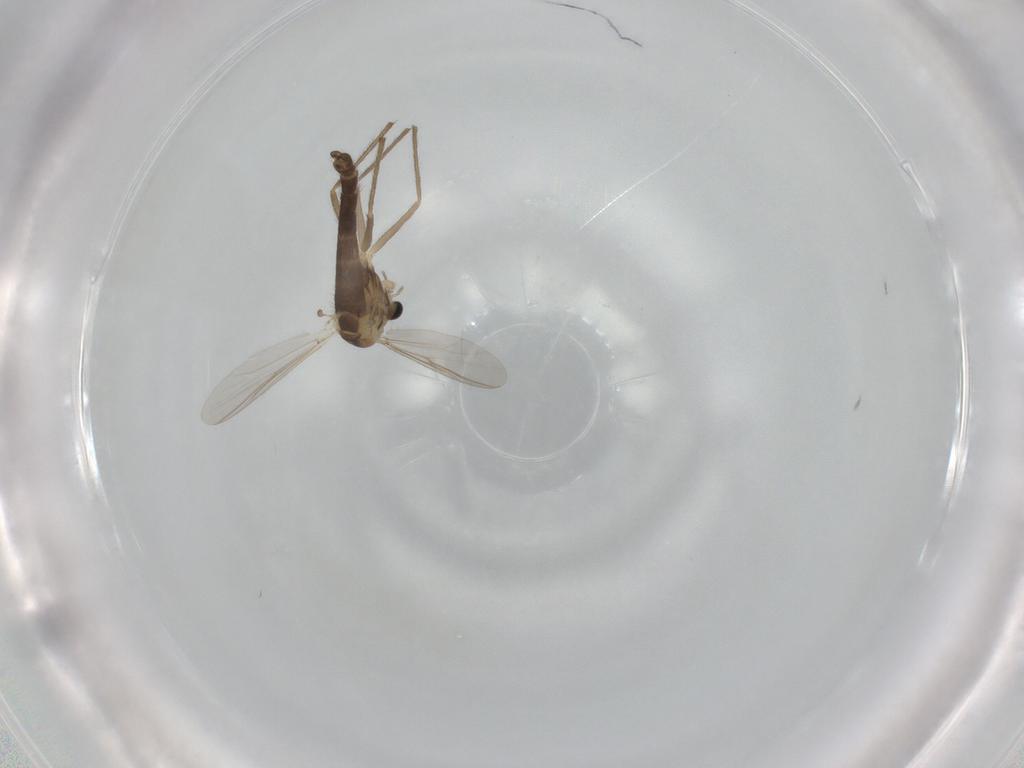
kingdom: Animalia
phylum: Arthropoda
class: Insecta
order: Diptera
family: Chironomidae
